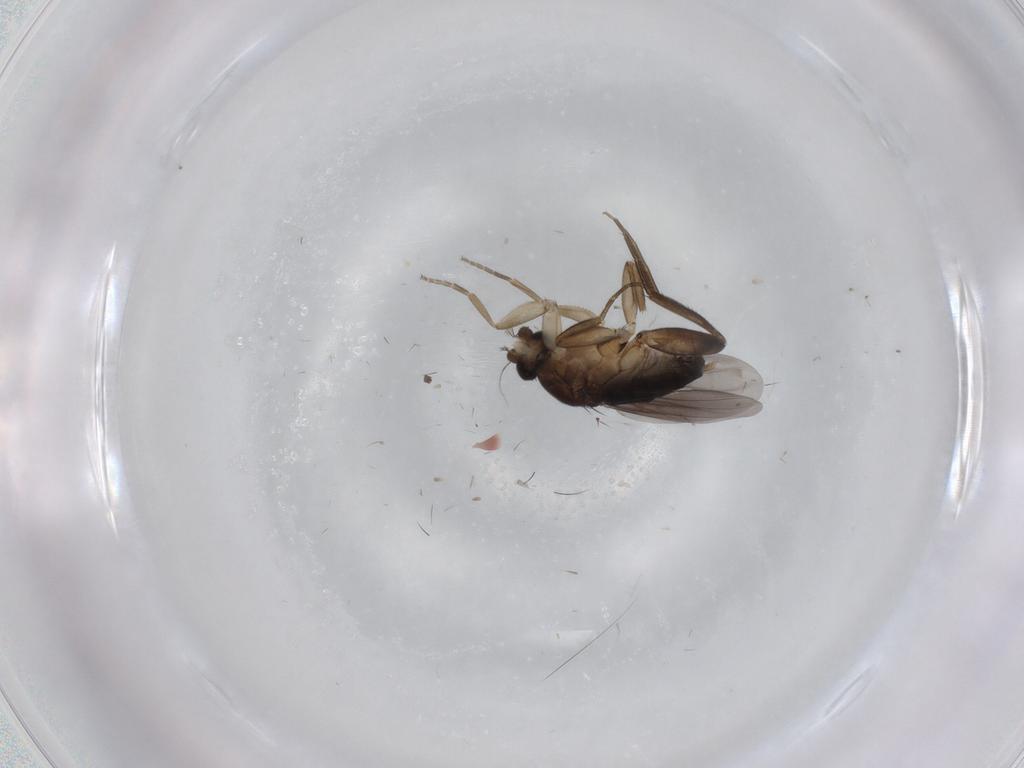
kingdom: Animalia
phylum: Arthropoda
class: Insecta
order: Diptera
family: Phoridae
